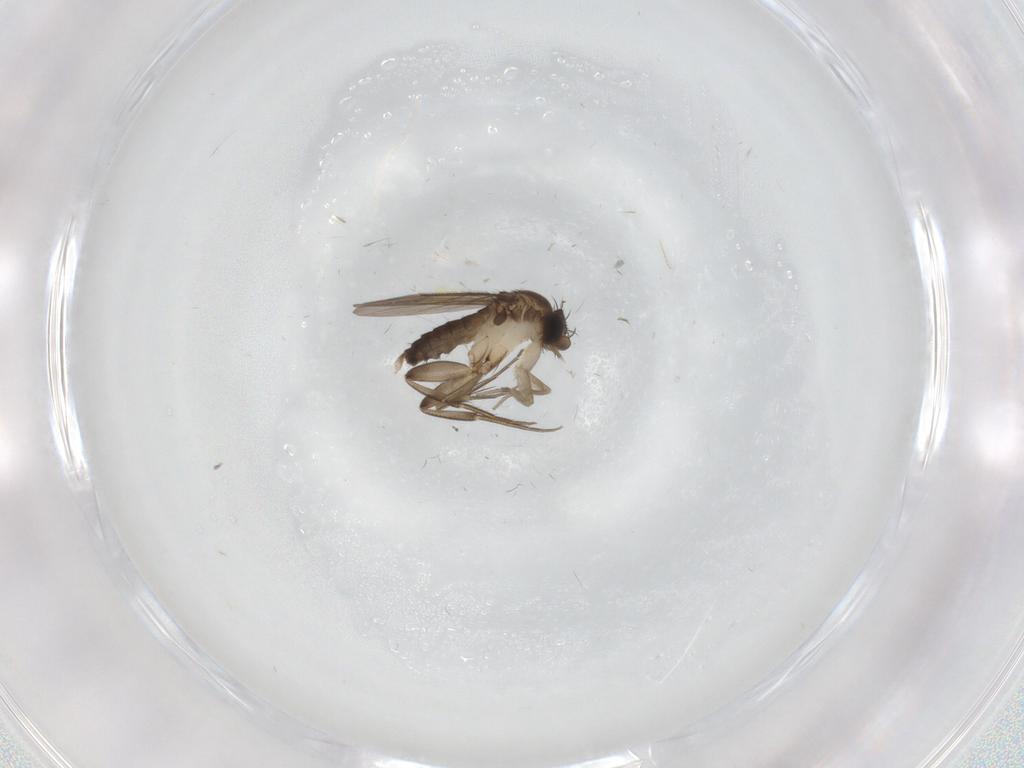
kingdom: Animalia
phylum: Arthropoda
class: Insecta
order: Diptera
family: Phoridae
